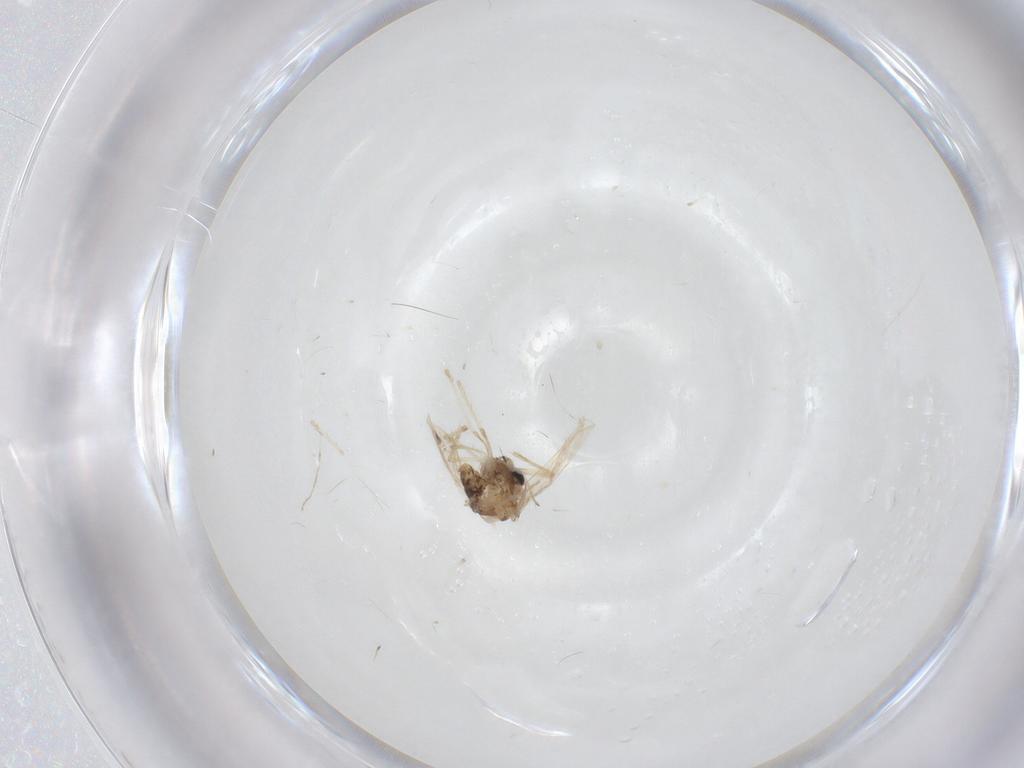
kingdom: Animalia
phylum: Arthropoda
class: Insecta
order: Diptera
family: Chironomidae
